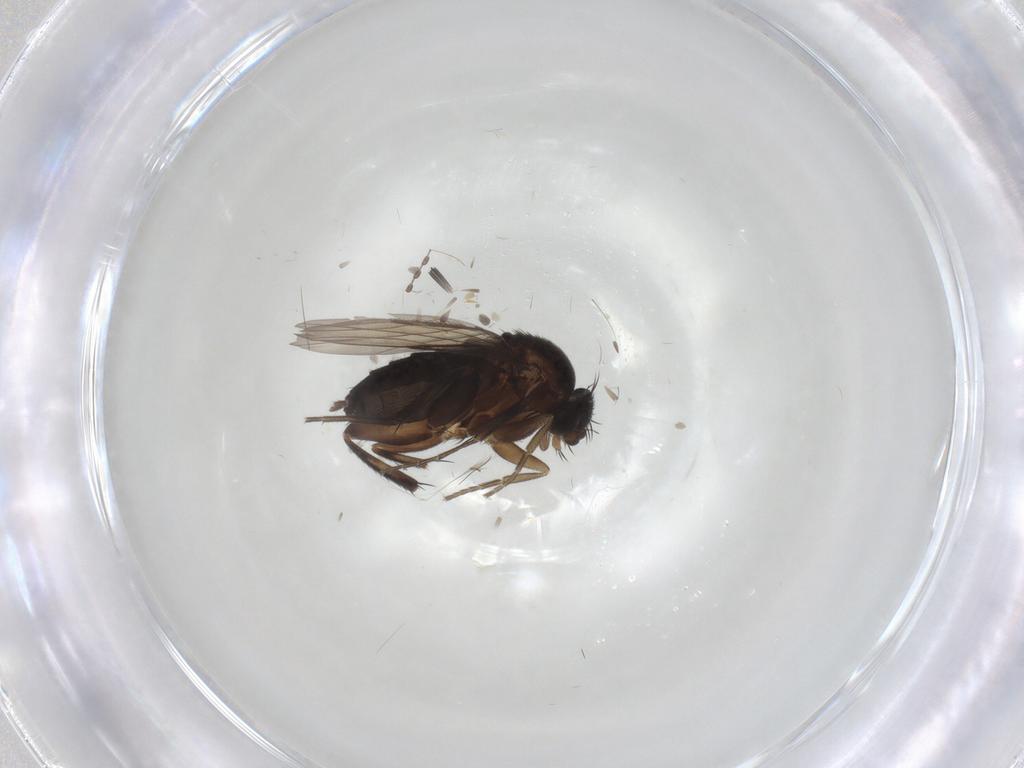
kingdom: Animalia
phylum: Arthropoda
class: Insecta
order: Diptera
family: Phoridae
